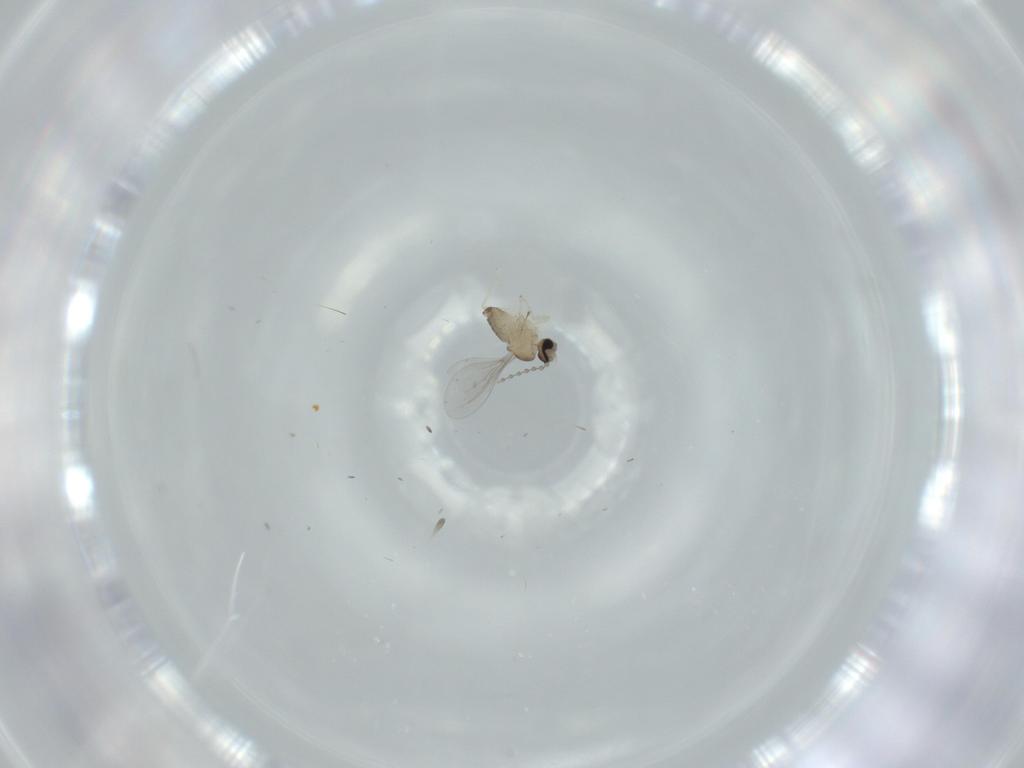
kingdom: Animalia
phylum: Arthropoda
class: Insecta
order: Diptera
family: Cecidomyiidae
